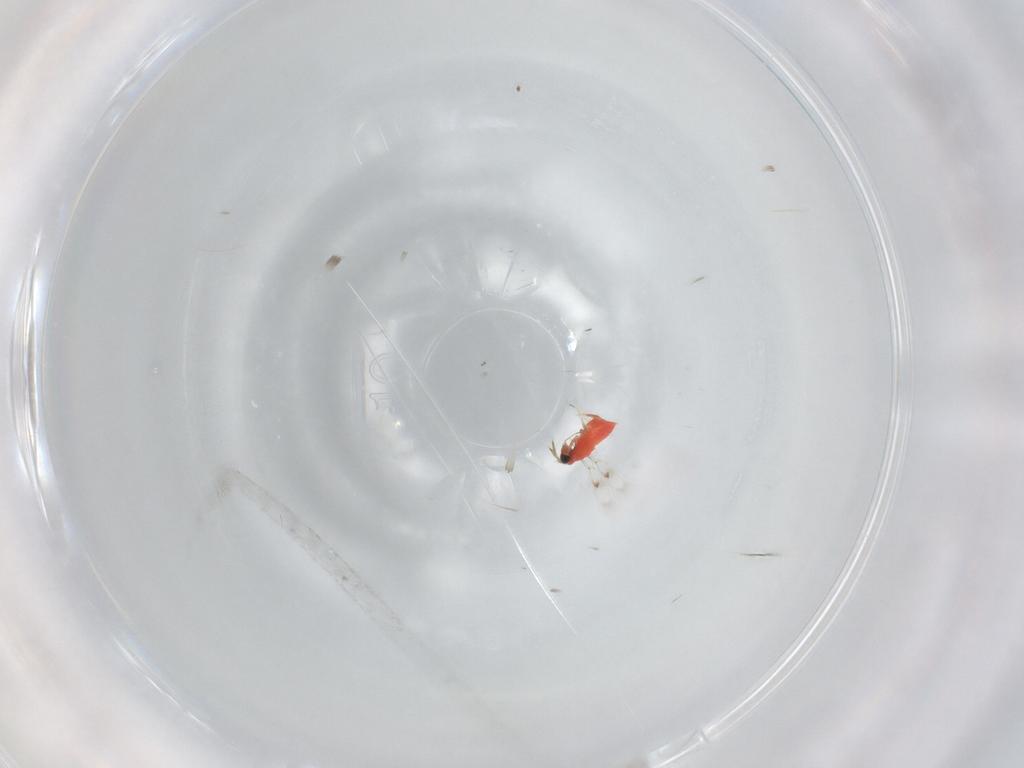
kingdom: Animalia
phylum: Arthropoda
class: Insecta
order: Hymenoptera
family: Trichogrammatidae
